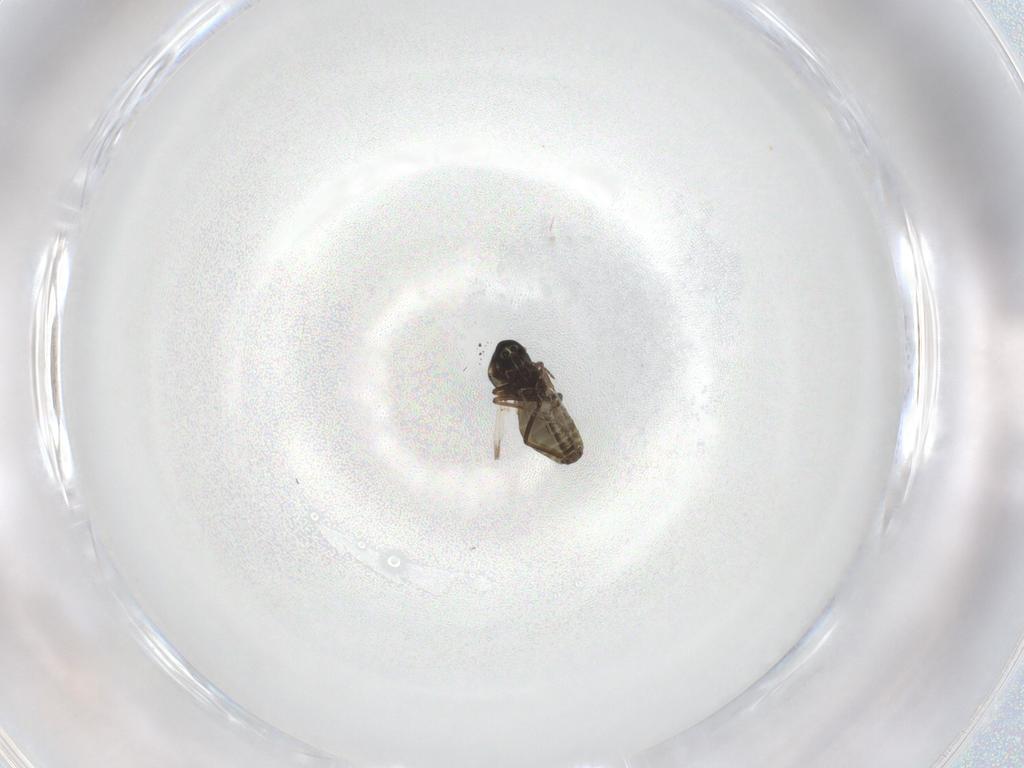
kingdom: Animalia
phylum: Arthropoda
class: Insecta
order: Diptera
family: Ceratopogonidae
